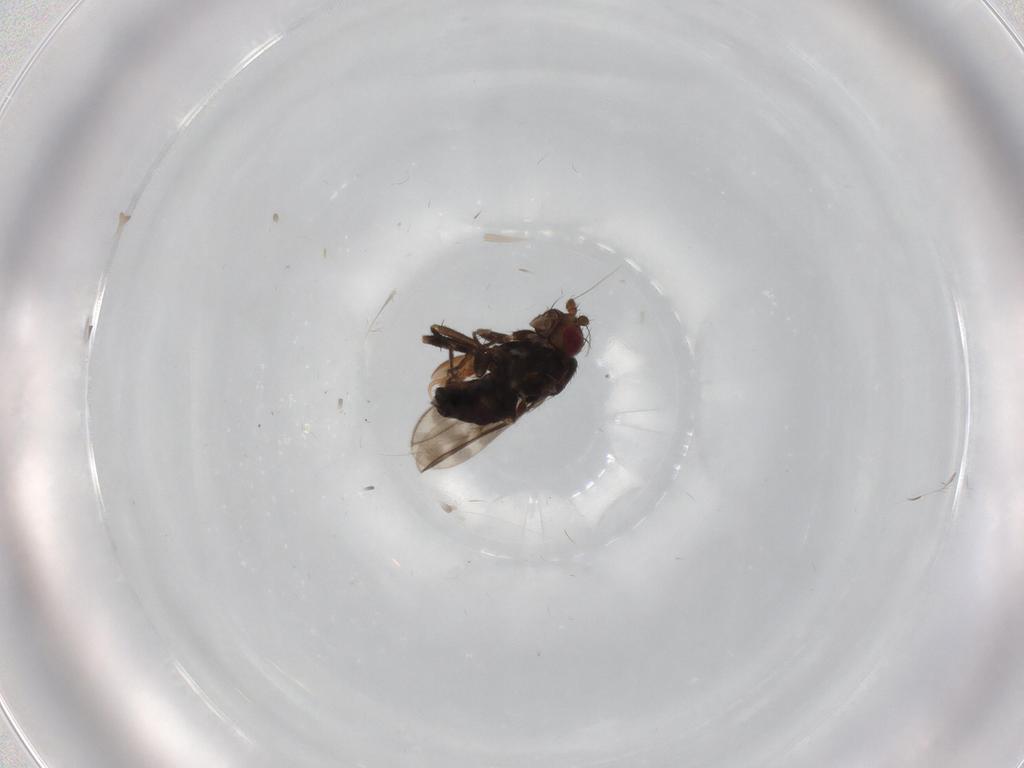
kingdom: Animalia
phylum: Arthropoda
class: Insecta
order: Diptera
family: Sphaeroceridae
